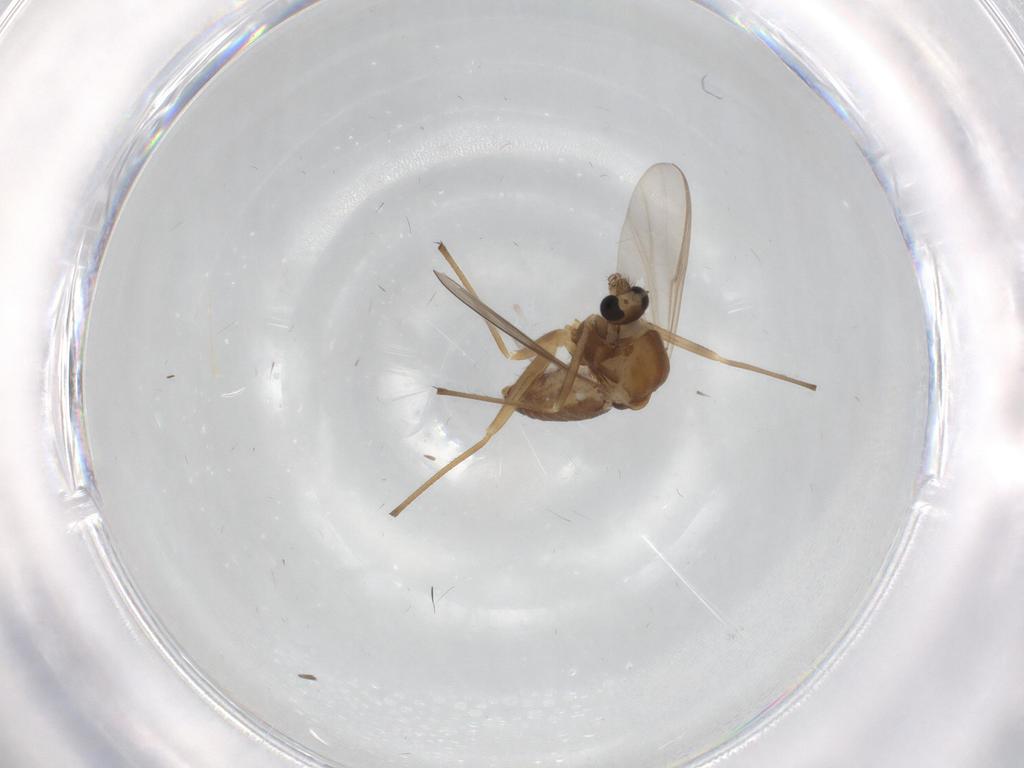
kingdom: Animalia
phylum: Arthropoda
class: Insecta
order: Diptera
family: Chironomidae
